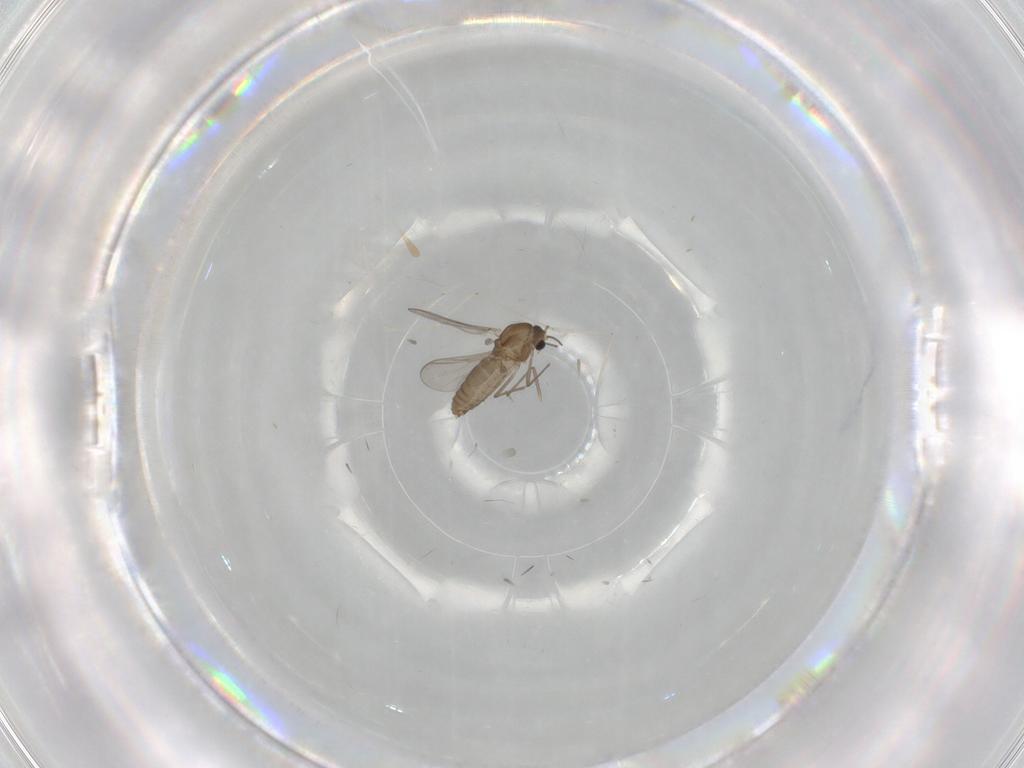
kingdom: Animalia
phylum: Arthropoda
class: Insecta
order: Diptera
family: Chironomidae
